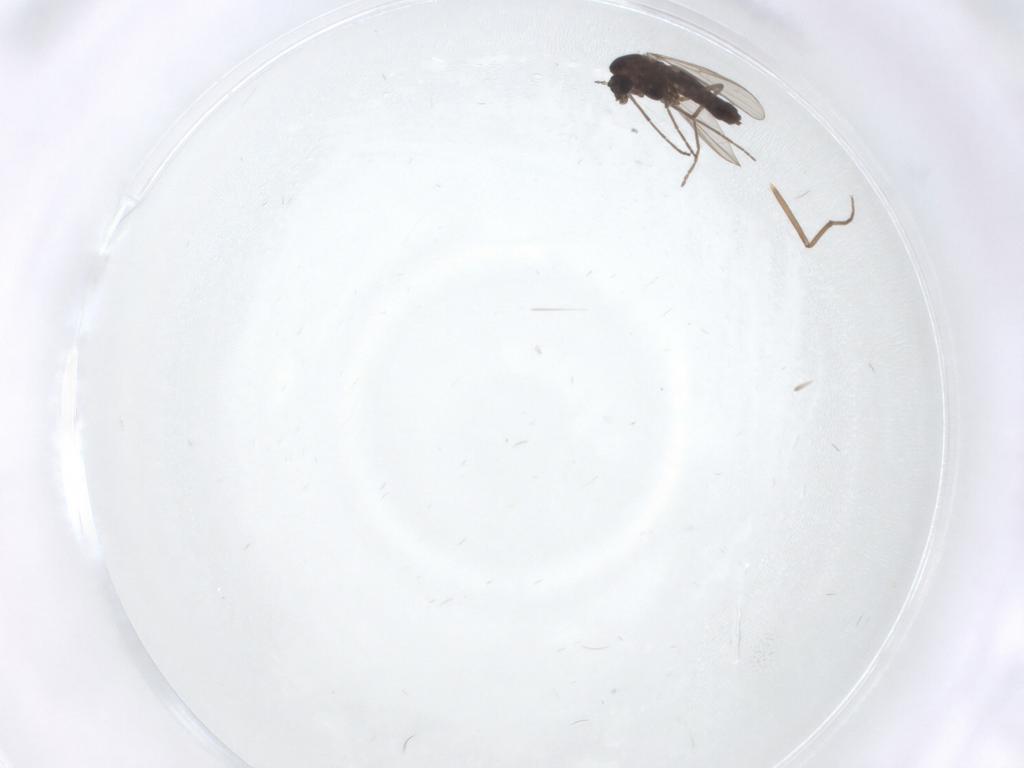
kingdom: Animalia
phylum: Arthropoda
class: Insecta
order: Diptera
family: Chironomidae
